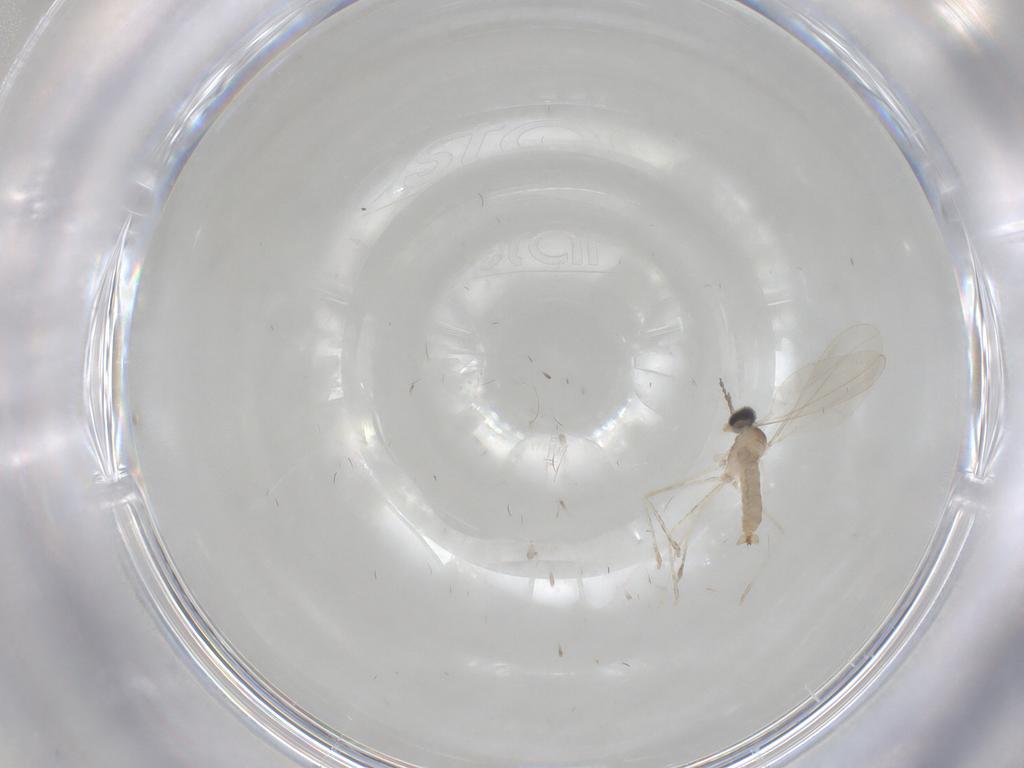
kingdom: Animalia
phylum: Arthropoda
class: Insecta
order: Diptera
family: Cecidomyiidae
